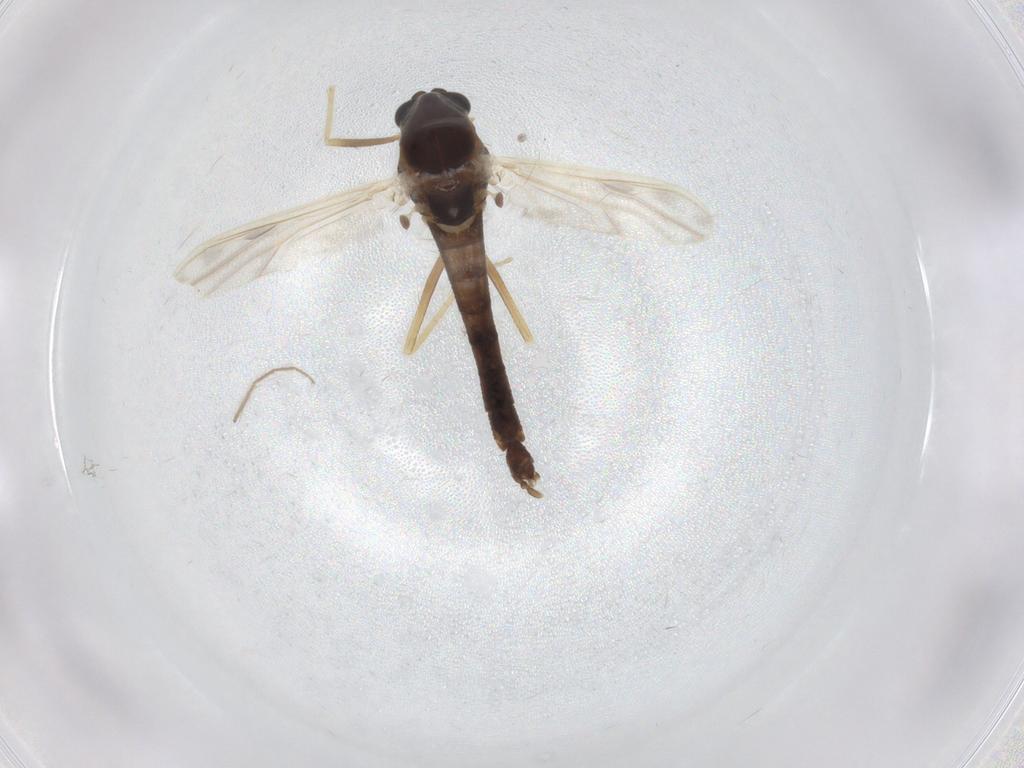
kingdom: Animalia
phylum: Arthropoda
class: Insecta
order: Diptera
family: Chironomidae
